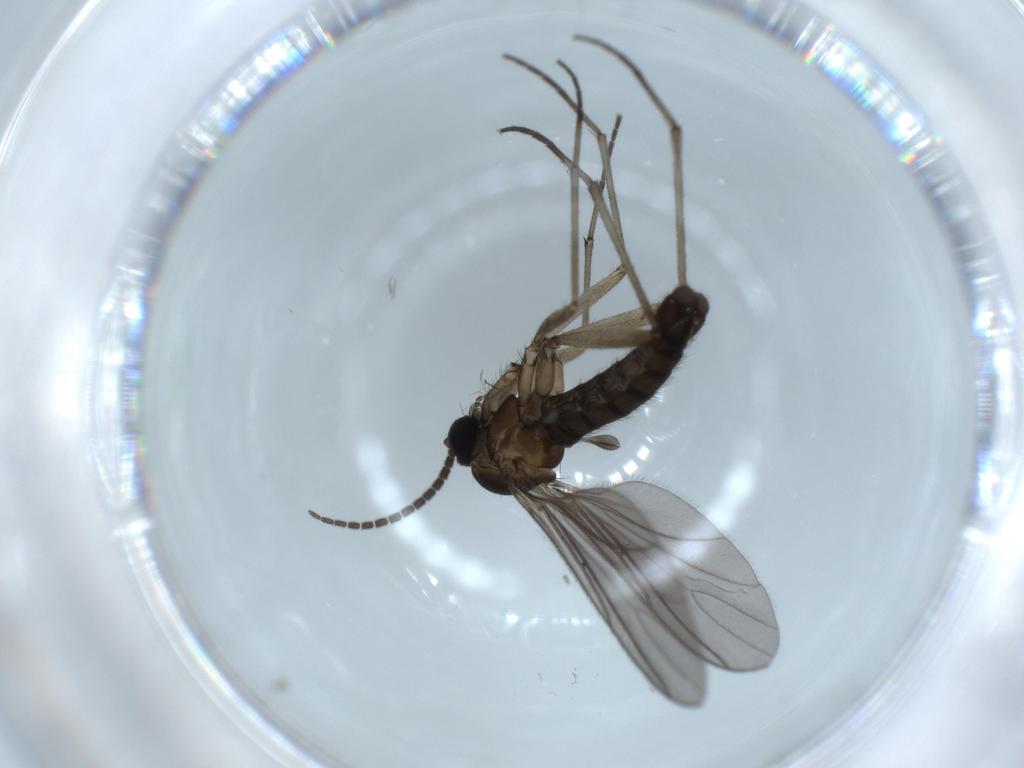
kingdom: Animalia
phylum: Arthropoda
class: Insecta
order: Diptera
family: Sciaridae
